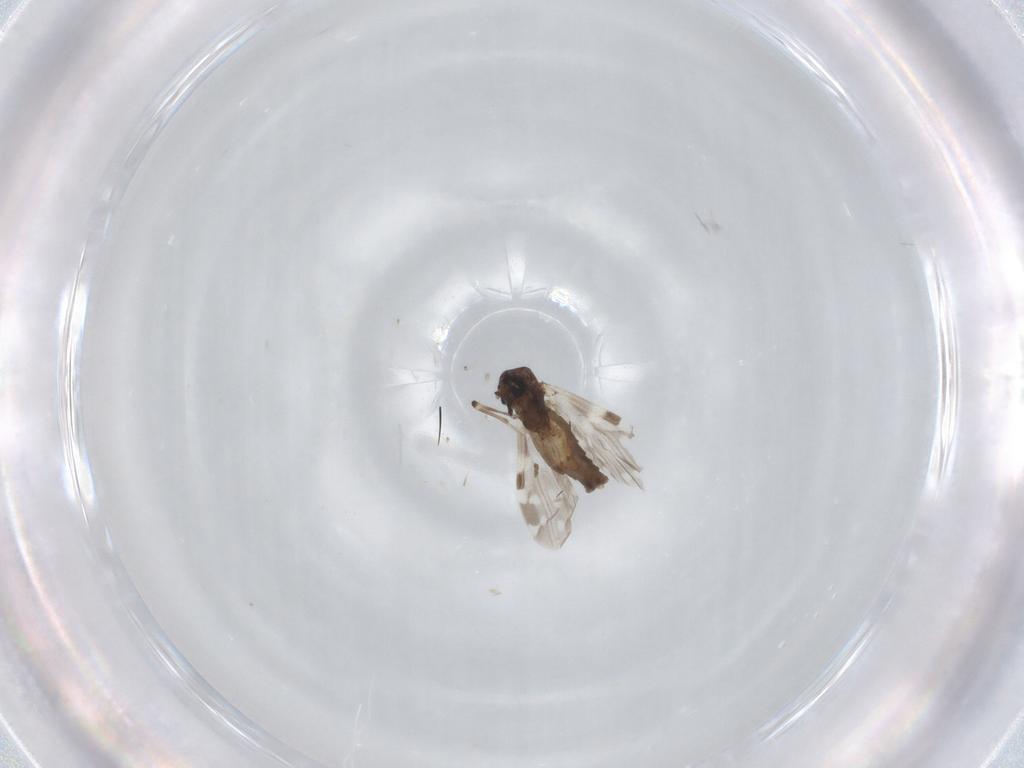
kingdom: Animalia
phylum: Arthropoda
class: Insecta
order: Diptera
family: Ceratopogonidae
